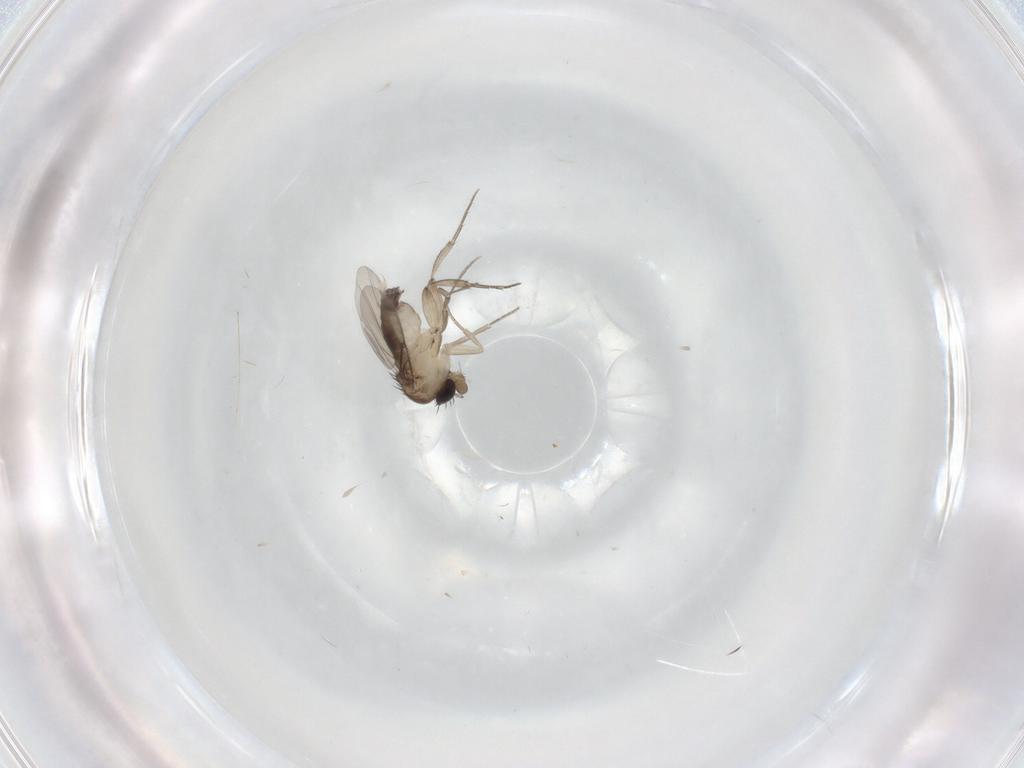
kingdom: Animalia
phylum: Arthropoda
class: Insecta
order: Diptera
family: Phoridae
